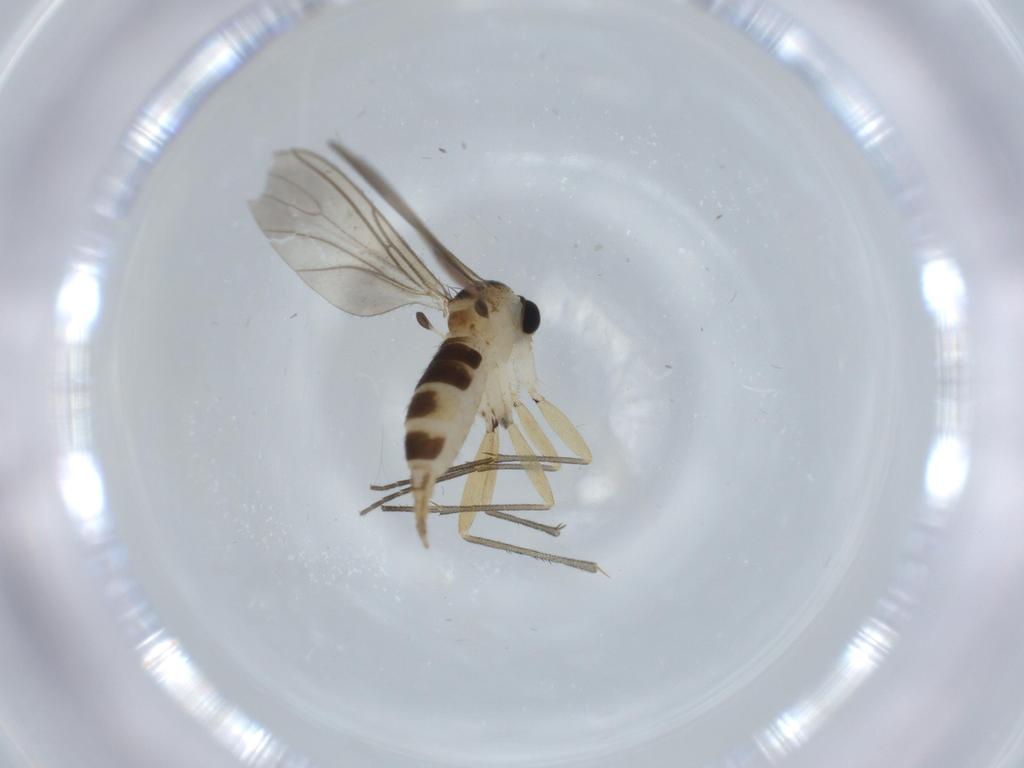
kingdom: Animalia
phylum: Arthropoda
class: Insecta
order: Diptera
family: Sciaridae
